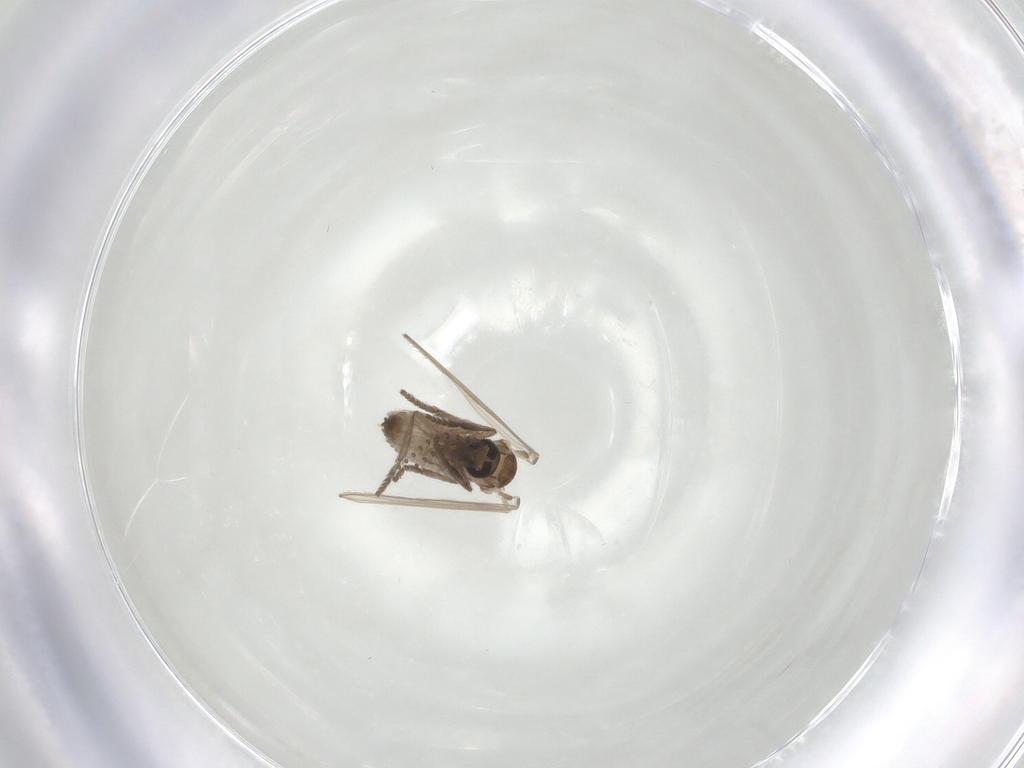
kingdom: Animalia
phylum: Arthropoda
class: Insecta
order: Diptera
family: Psychodidae
